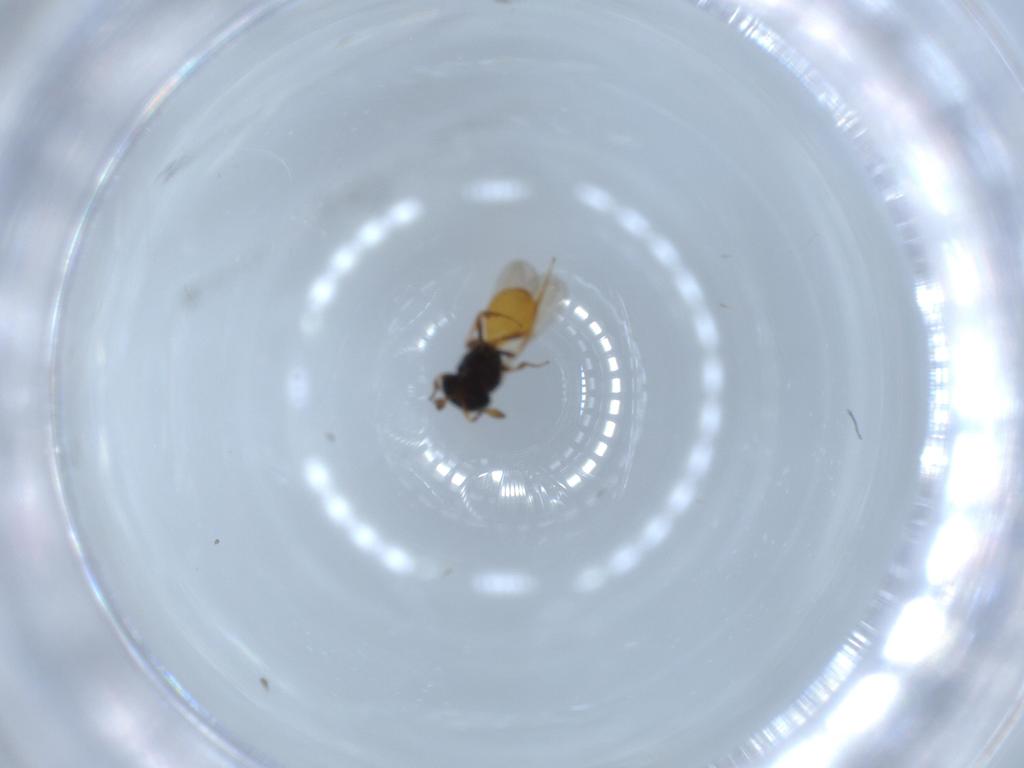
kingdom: Animalia
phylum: Arthropoda
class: Insecta
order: Hymenoptera
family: Scelionidae
